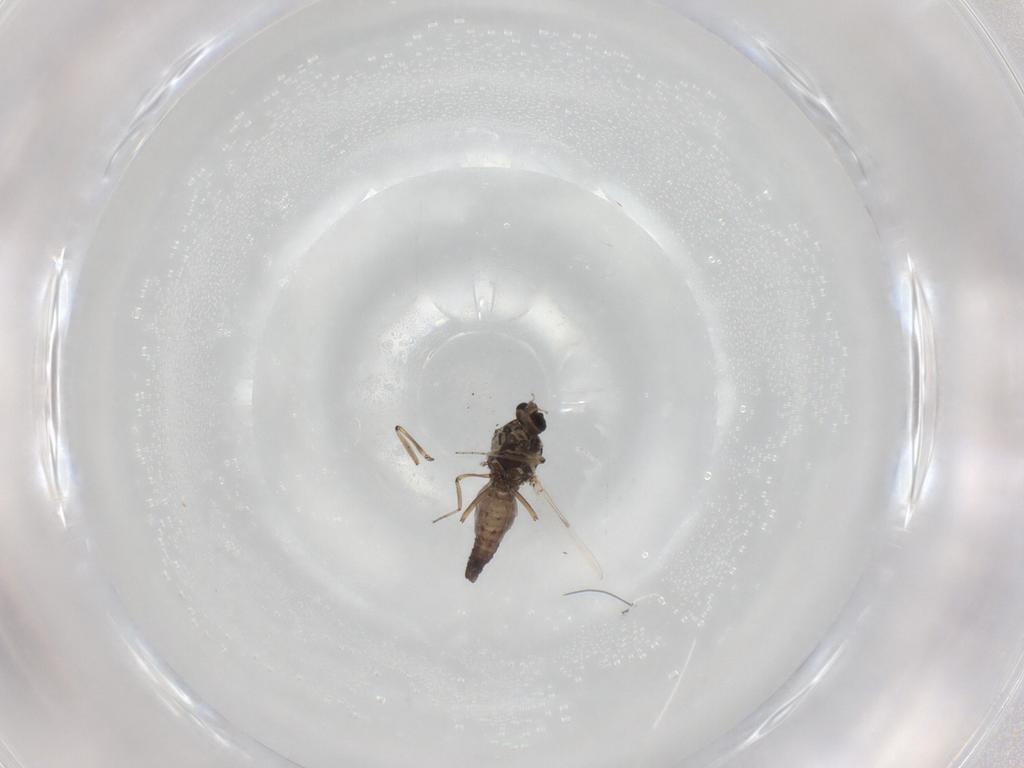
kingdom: Animalia
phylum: Arthropoda
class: Insecta
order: Diptera
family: Ceratopogonidae
